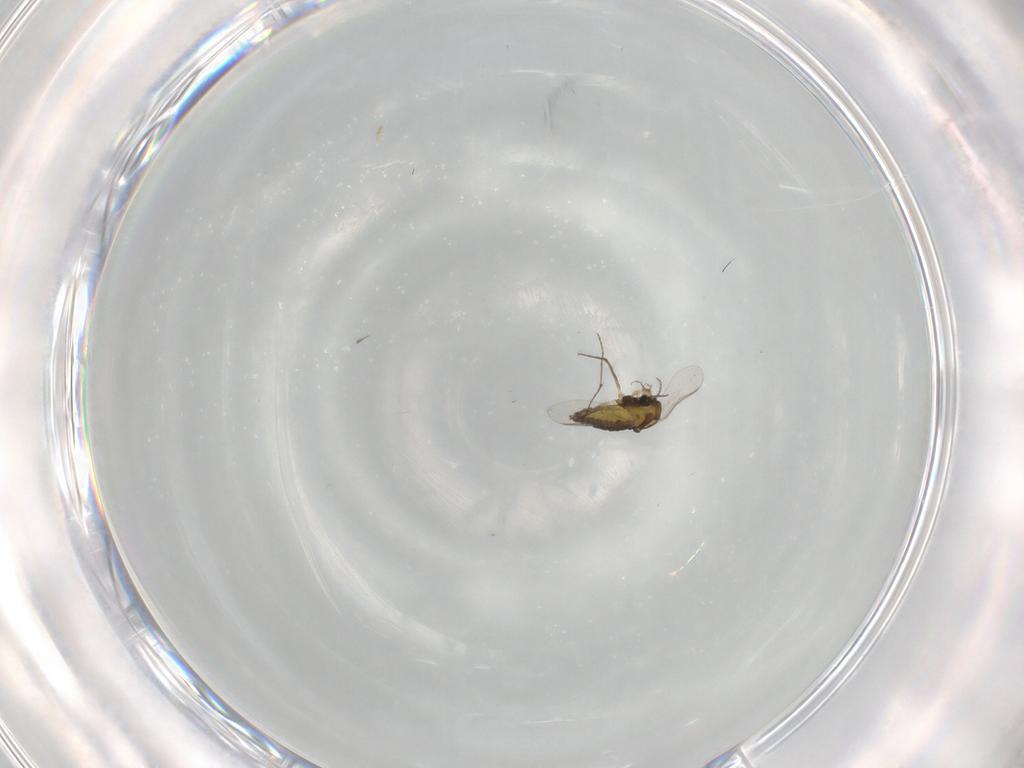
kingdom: Animalia
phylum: Arthropoda
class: Insecta
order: Diptera
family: Chironomidae
